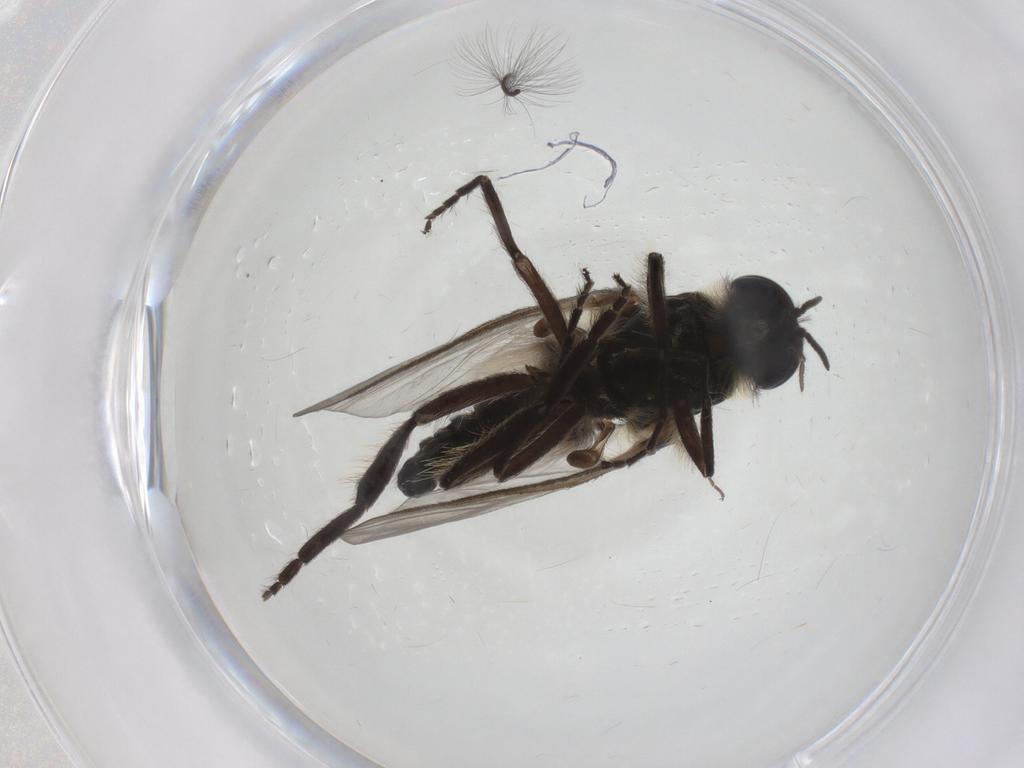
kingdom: Animalia
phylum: Arthropoda
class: Insecta
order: Diptera
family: Simuliidae
